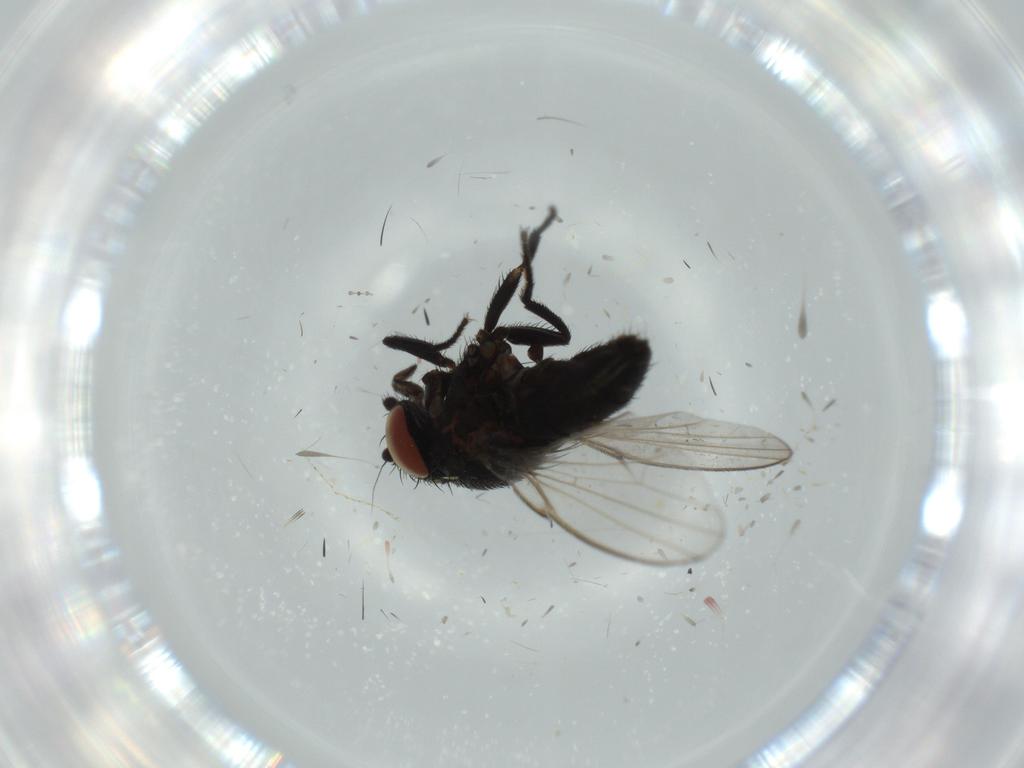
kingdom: Animalia
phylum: Arthropoda
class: Insecta
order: Diptera
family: Chironomidae
